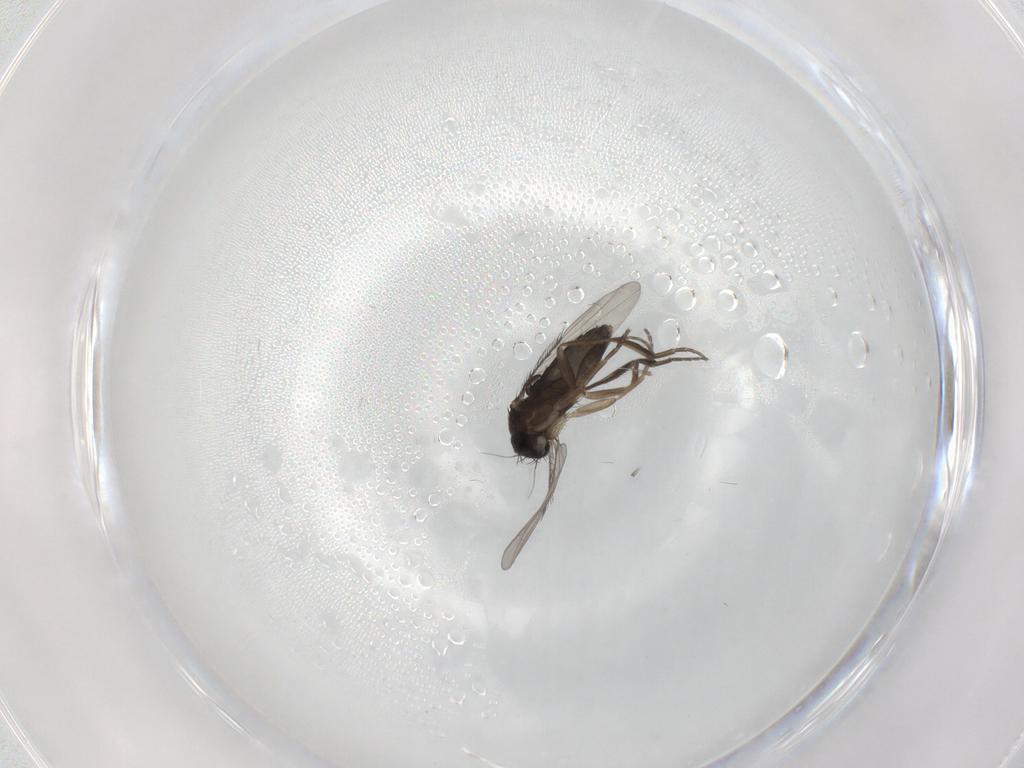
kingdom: Animalia
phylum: Arthropoda
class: Insecta
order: Diptera
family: Phoridae
